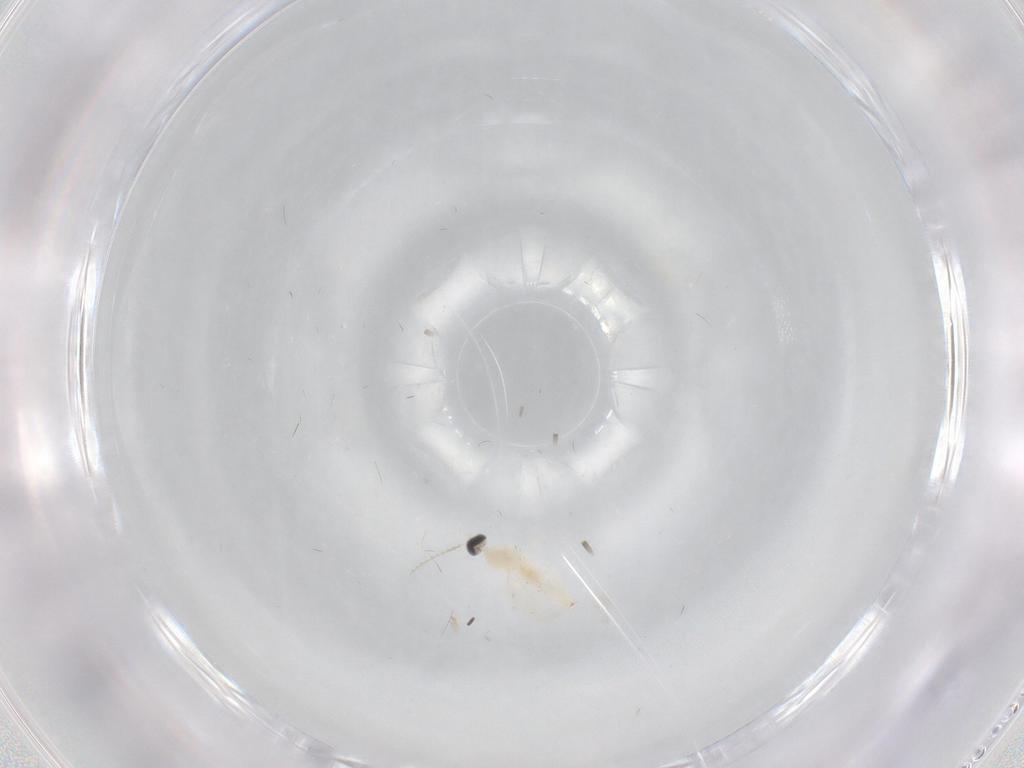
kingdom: Animalia
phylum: Arthropoda
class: Insecta
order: Diptera
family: Cecidomyiidae
